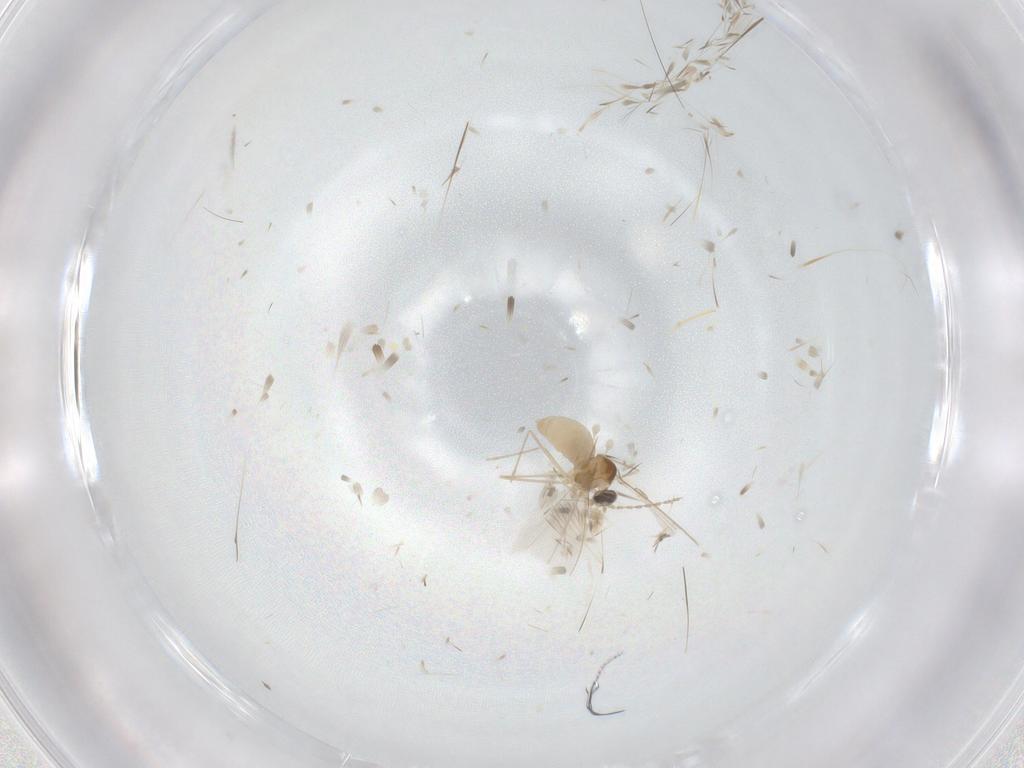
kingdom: Animalia
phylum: Arthropoda
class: Insecta
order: Diptera
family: Cecidomyiidae
